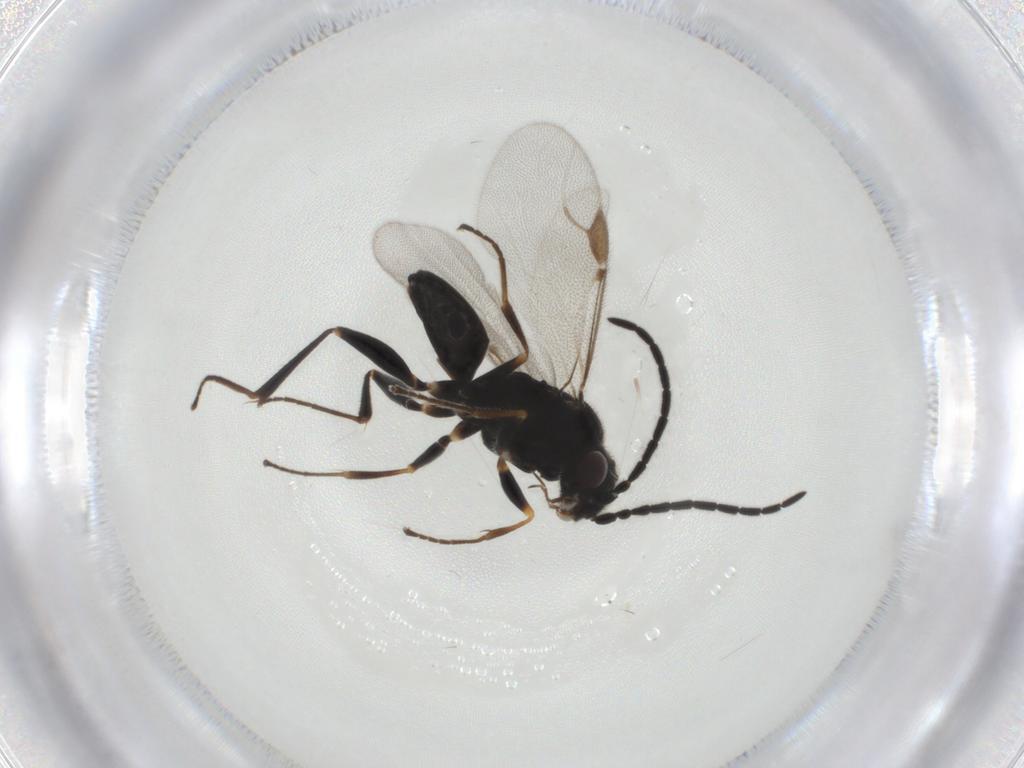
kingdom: Animalia
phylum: Arthropoda
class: Insecta
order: Hymenoptera
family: Dryinidae
